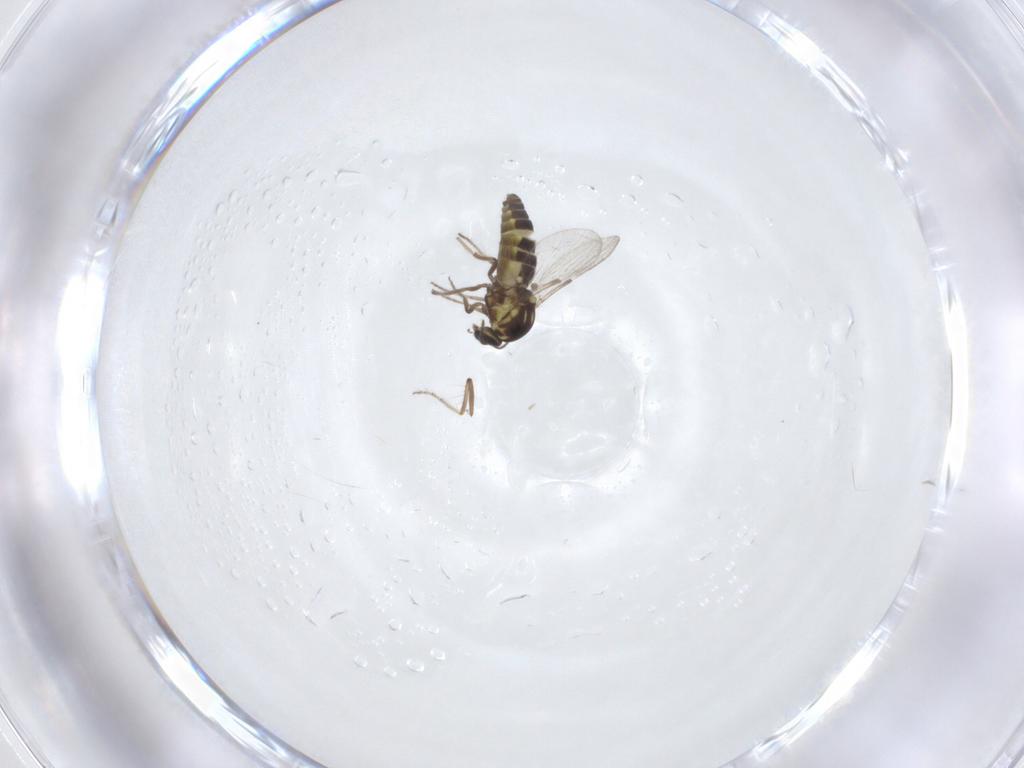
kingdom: Animalia
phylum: Arthropoda
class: Insecta
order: Diptera
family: Ceratopogonidae
